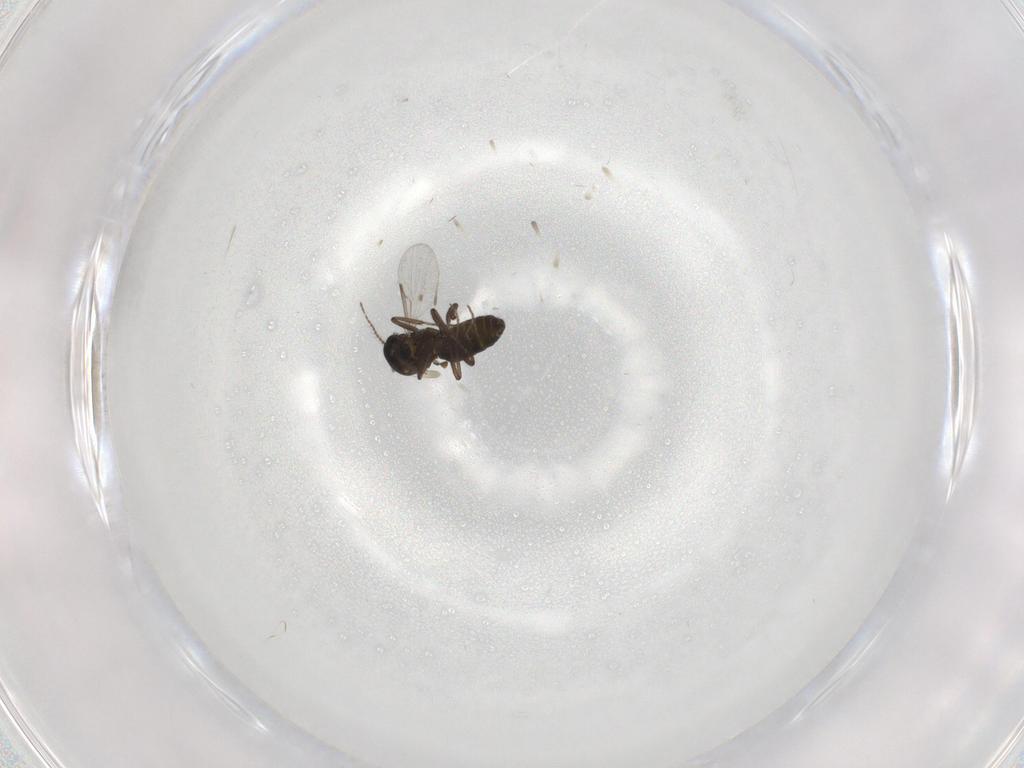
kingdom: Animalia
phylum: Arthropoda
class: Insecta
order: Diptera
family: Ceratopogonidae
